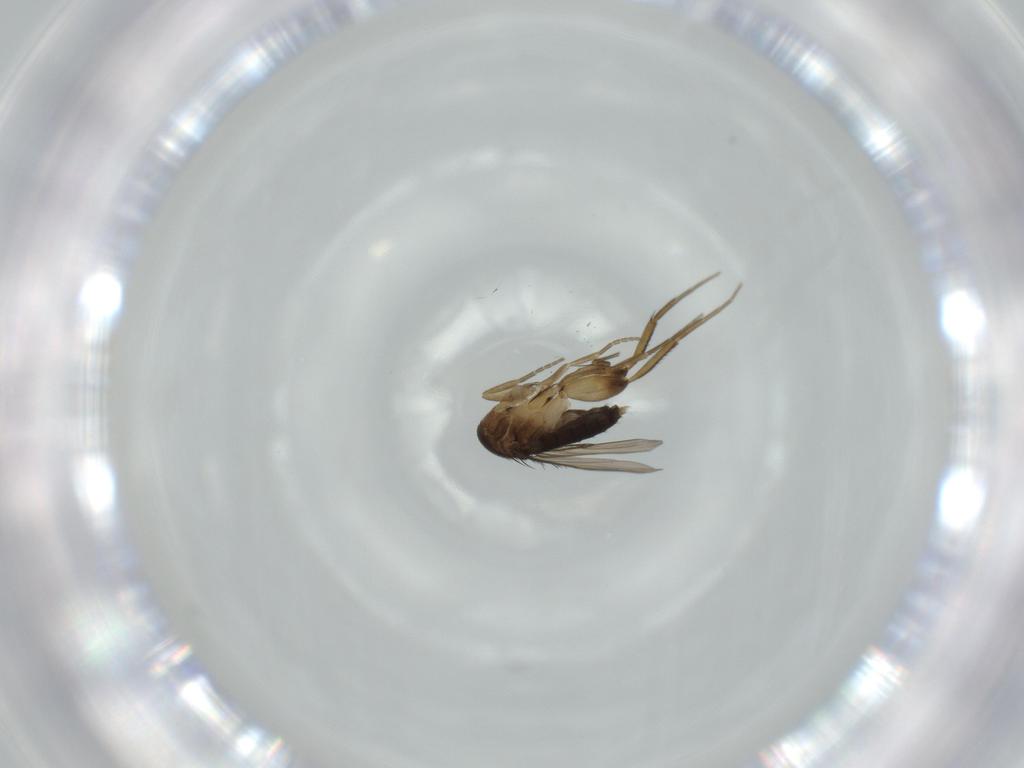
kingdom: Animalia
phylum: Arthropoda
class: Insecta
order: Diptera
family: Phoridae
